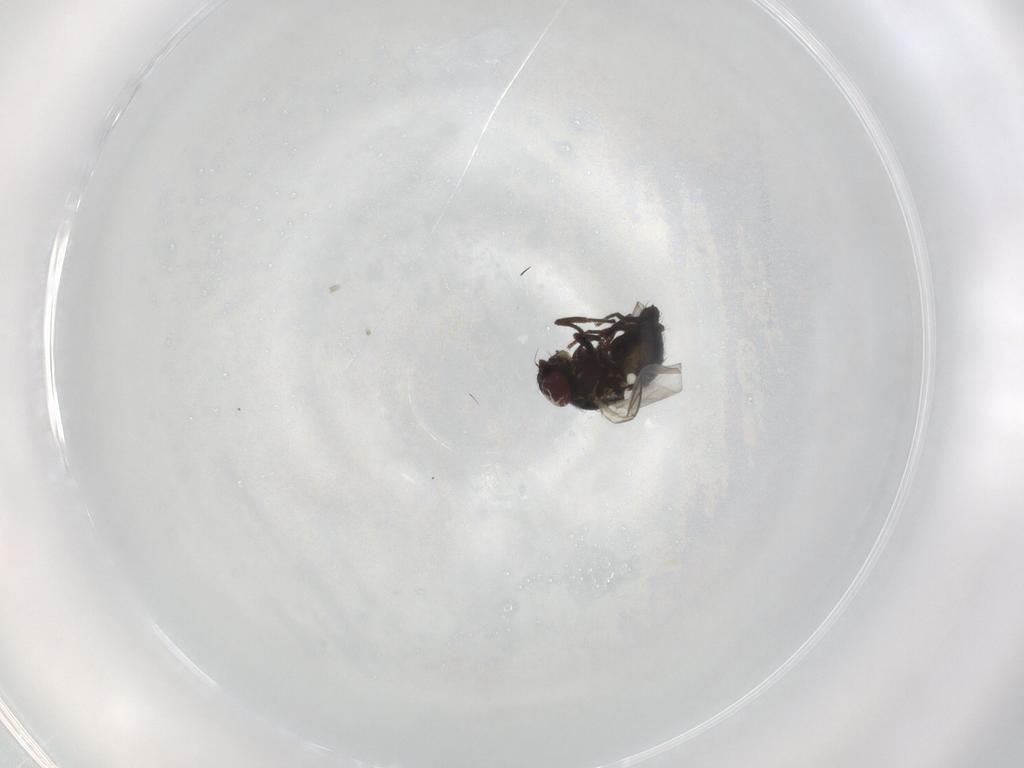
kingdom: Animalia
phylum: Arthropoda
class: Insecta
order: Diptera
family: Agromyzidae
